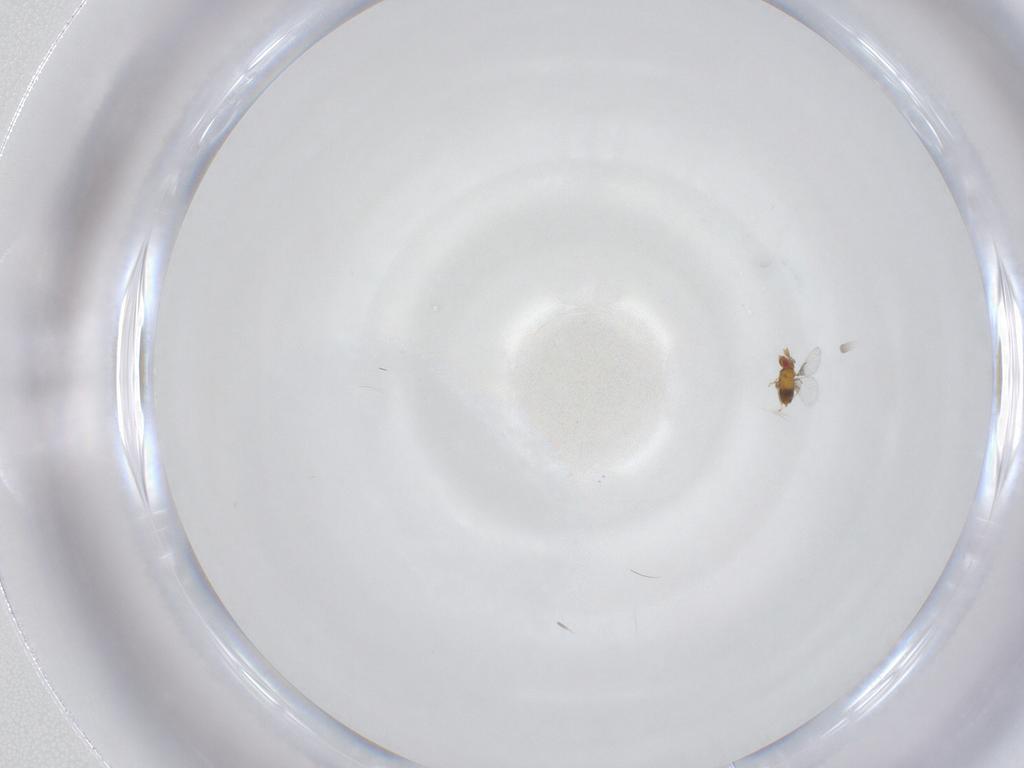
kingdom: Animalia
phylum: Arthropoda
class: Insecta
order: Hymenoptera
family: Trichogrammatidae
